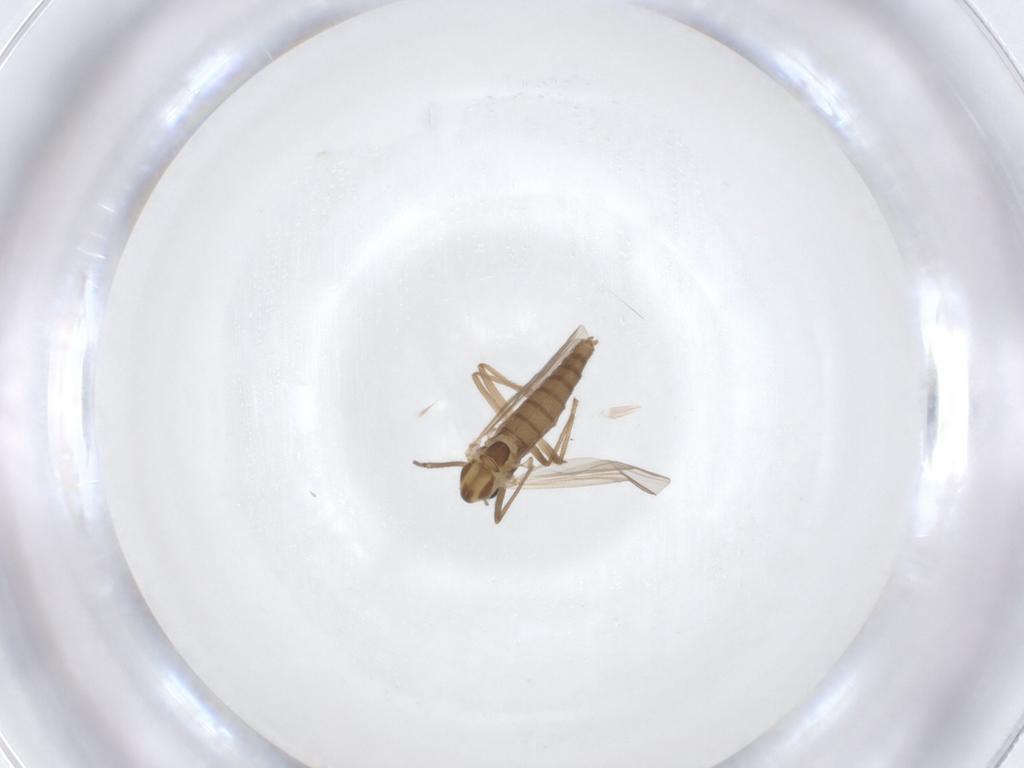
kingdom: Animalia
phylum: Arthropoda
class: Insecta
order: Diptera
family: Chironomidae
